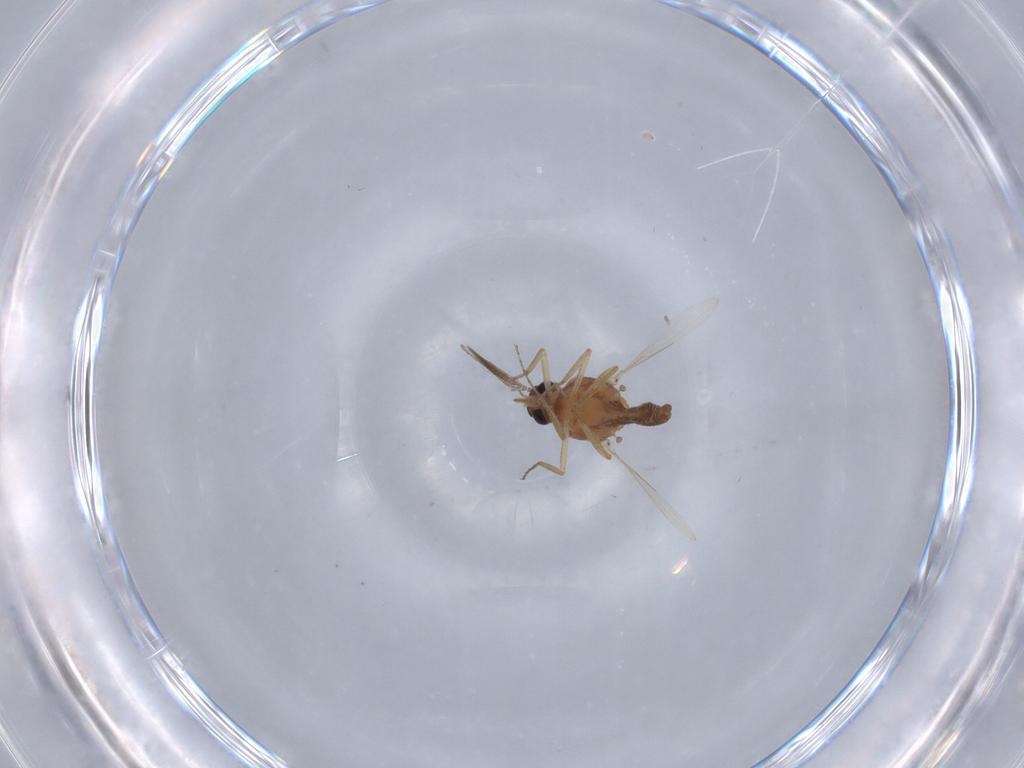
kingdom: Animalia
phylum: Arthropoda
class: Insecta
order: Diptera
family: Ceratopogonidae
